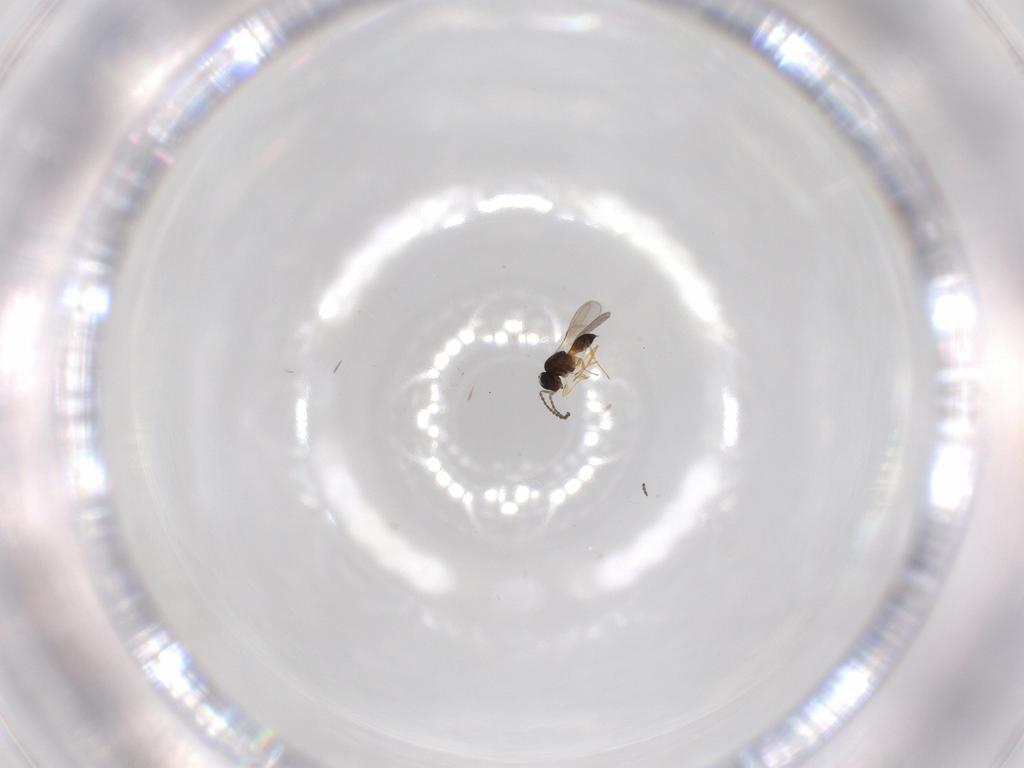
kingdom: Animalia
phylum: Arthropoda
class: Insecta
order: Hymenoptera
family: Scelionidae
